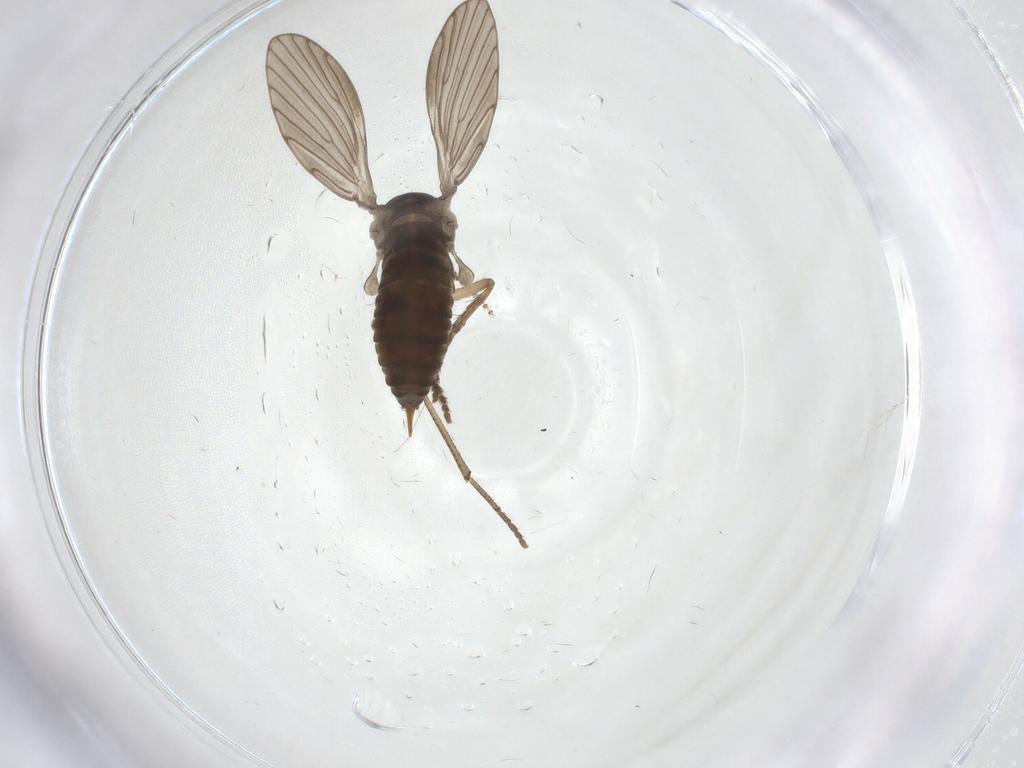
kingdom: Animalia
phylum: Arthropoda
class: Insecta
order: Diptera
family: Psychodidae
